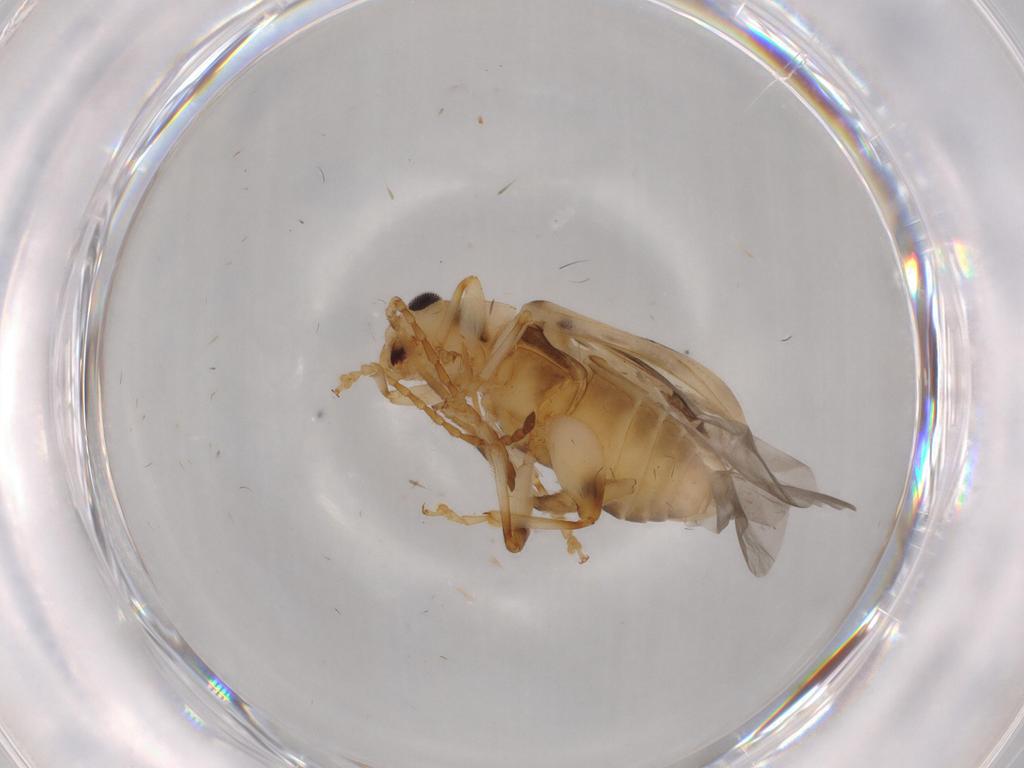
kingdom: Animalia
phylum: Arthropoda
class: Insecta
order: Coleoptera
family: Chrysomelidae
